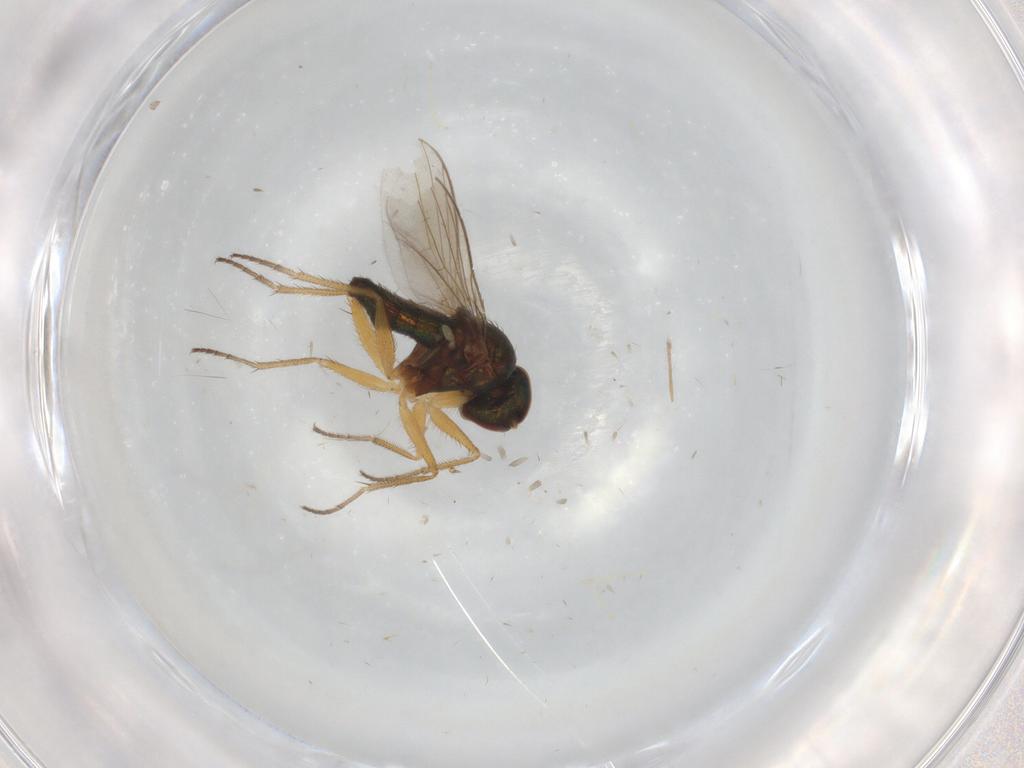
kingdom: Animalia
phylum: Arthropoda
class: Insecta
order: Diptera
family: Cecidomyiidae
